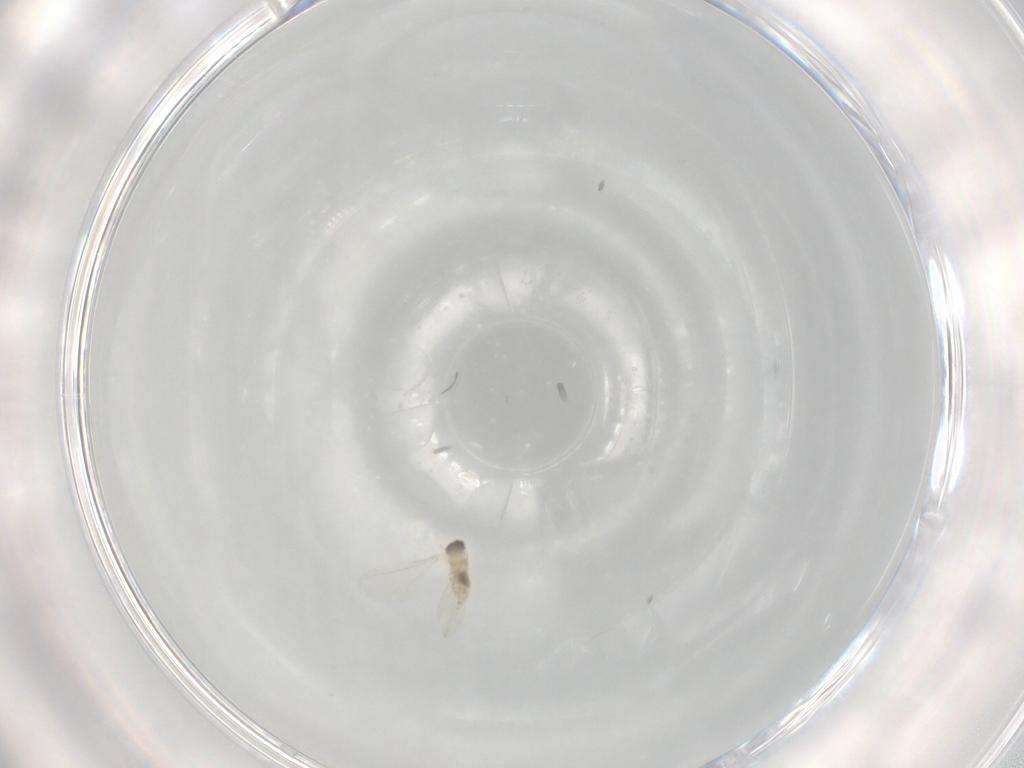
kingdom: Animalia
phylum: Arthropoda
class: Insecta
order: Diptera
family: Cecidomyiidae
